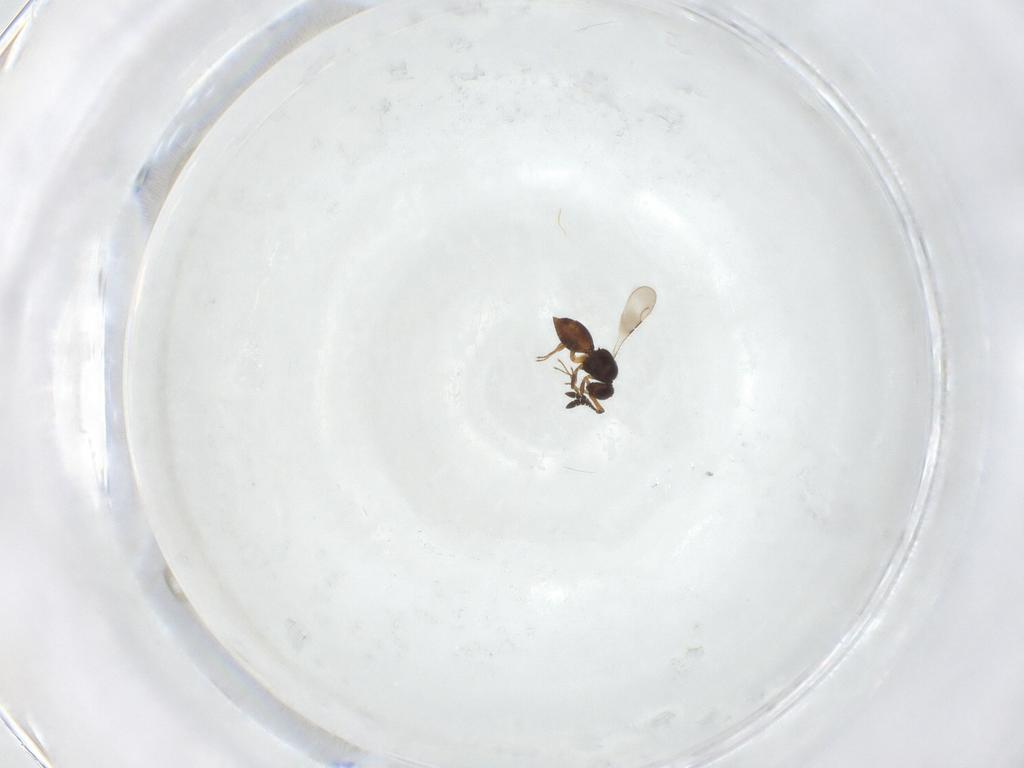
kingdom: Animalia
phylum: Arthropoda
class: Insecta
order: Hymenoptera
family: Ceraphronidae
